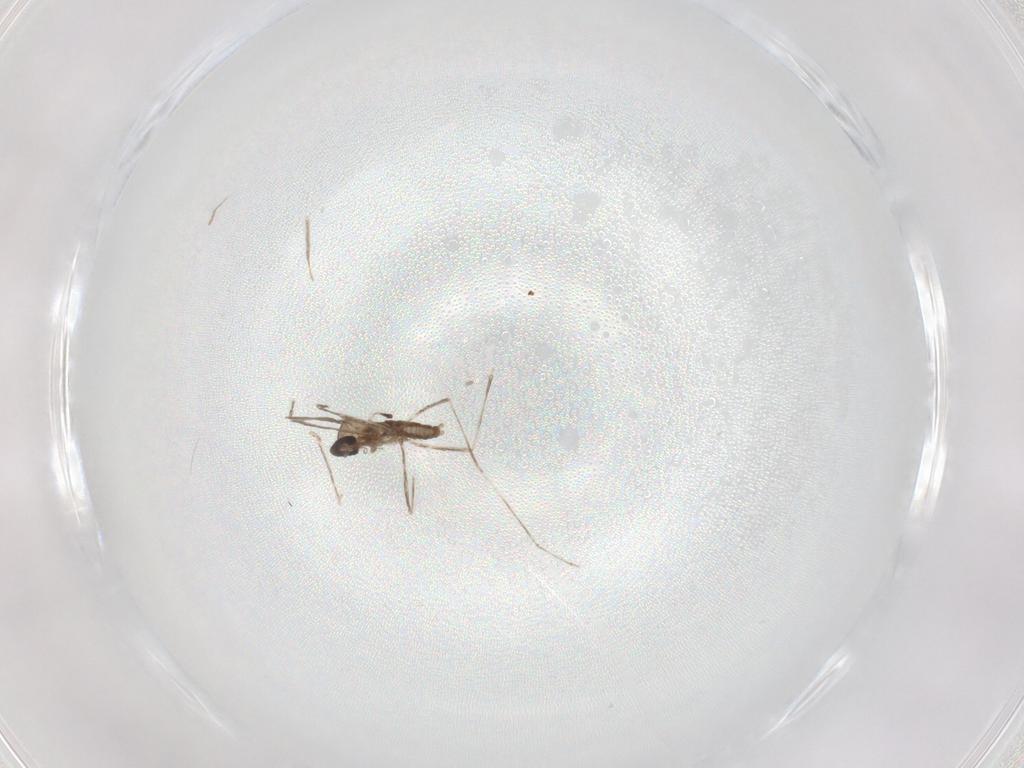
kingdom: Animalia
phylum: Arthropoda
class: Insecta
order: Diptera
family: Cecidomyiidae
